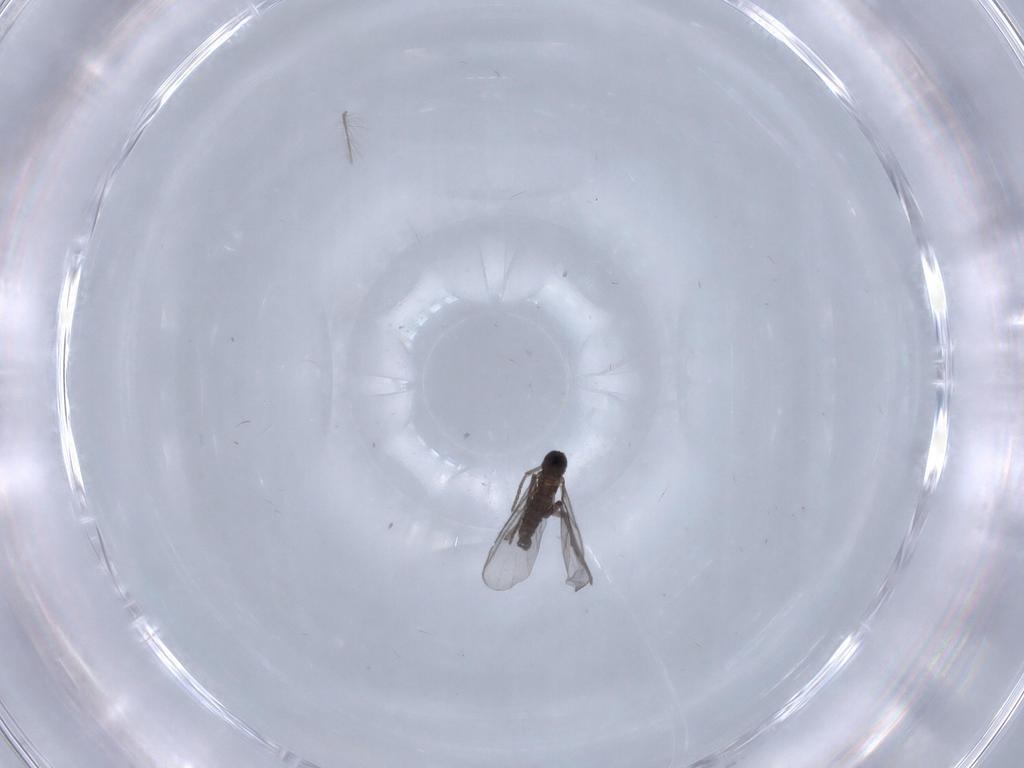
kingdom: Animalia
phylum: Arthropoda
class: Insecta
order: Diptera
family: Chironomidae
